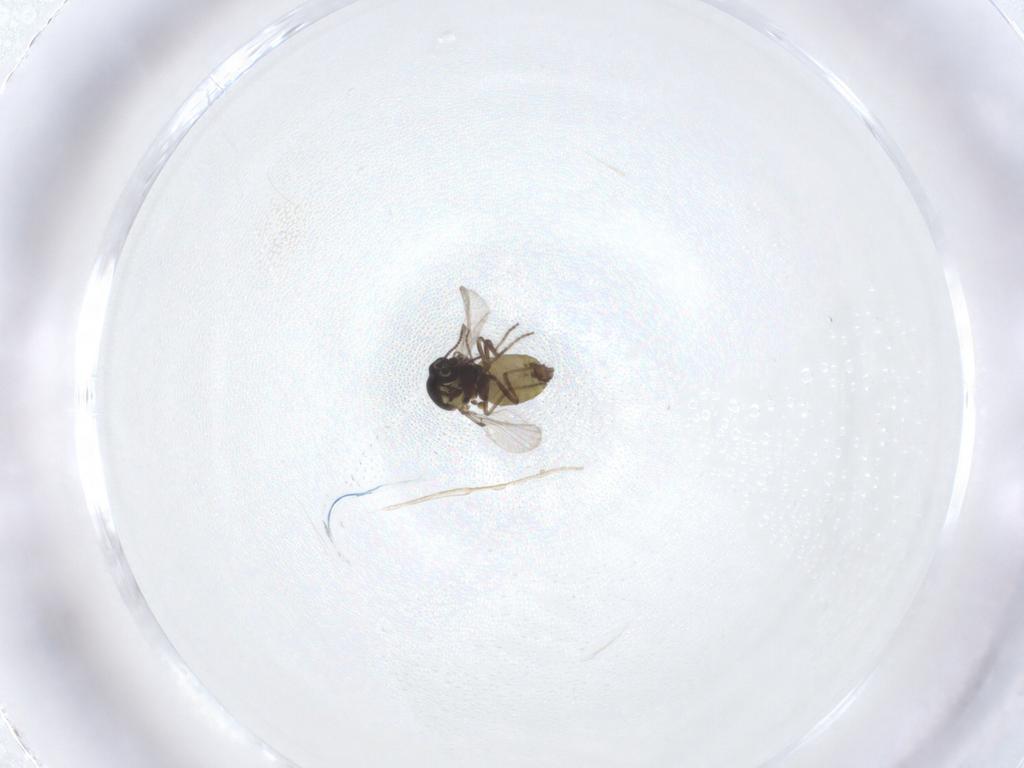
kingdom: Animalia
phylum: Arthropoda
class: Insecta
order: Diptera
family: Ceratopogonidae
